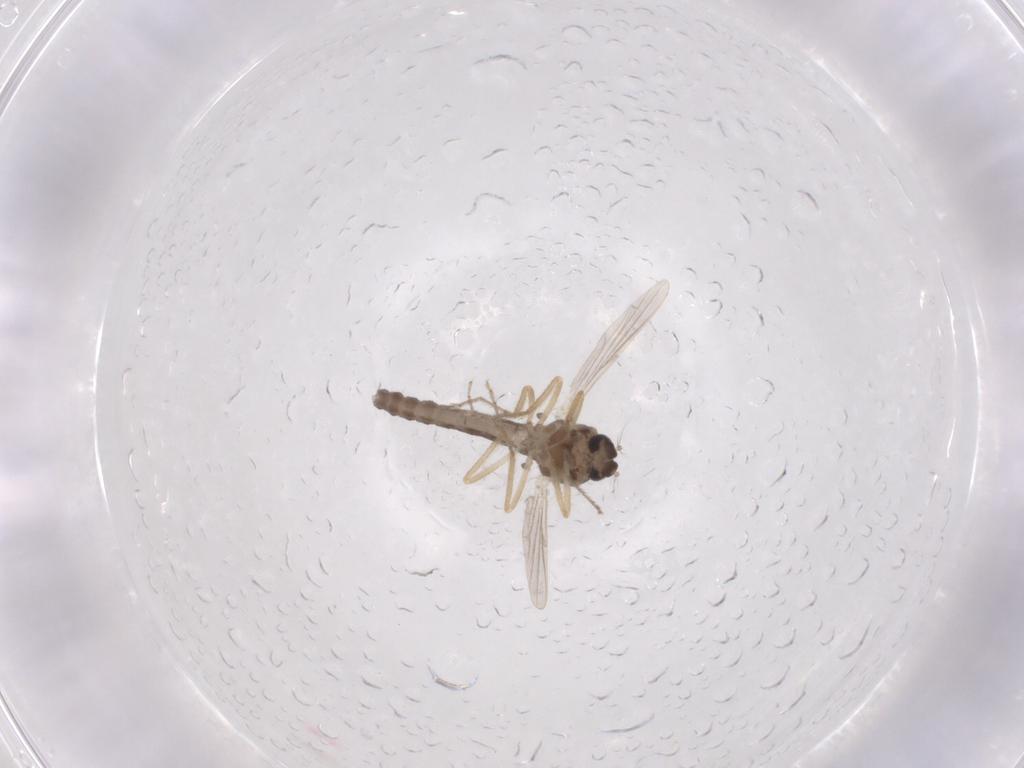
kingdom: Animalia
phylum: Arthropoda
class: Insecta
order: Diptera
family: Ceratopogonidae
